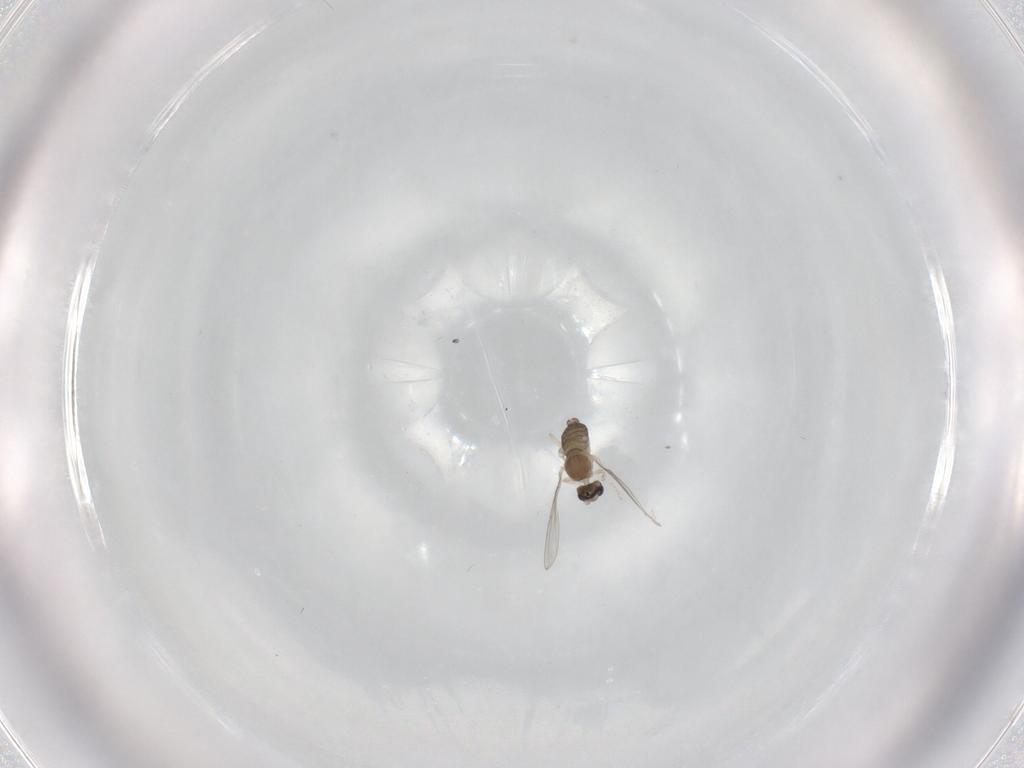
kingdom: Animalia
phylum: Arthropoda
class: Insecta
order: Diptera
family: Cecidomyiidae
